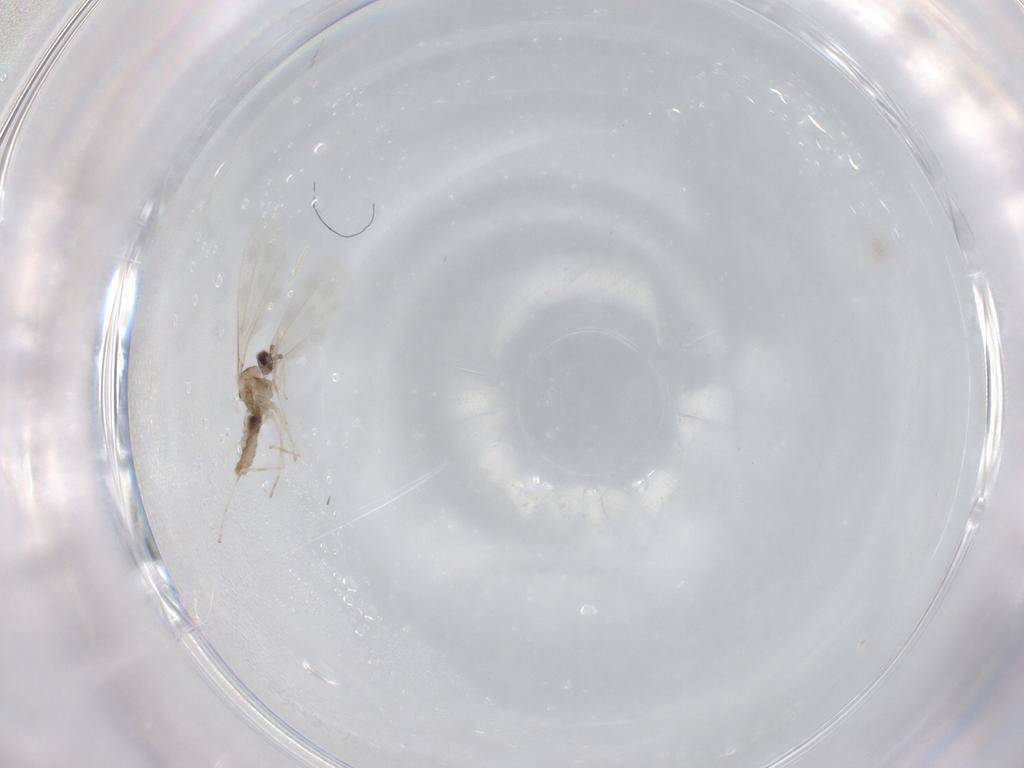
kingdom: Animalia
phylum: Arthropoda
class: Insecta
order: Diptera
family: Cecidomyiidae
